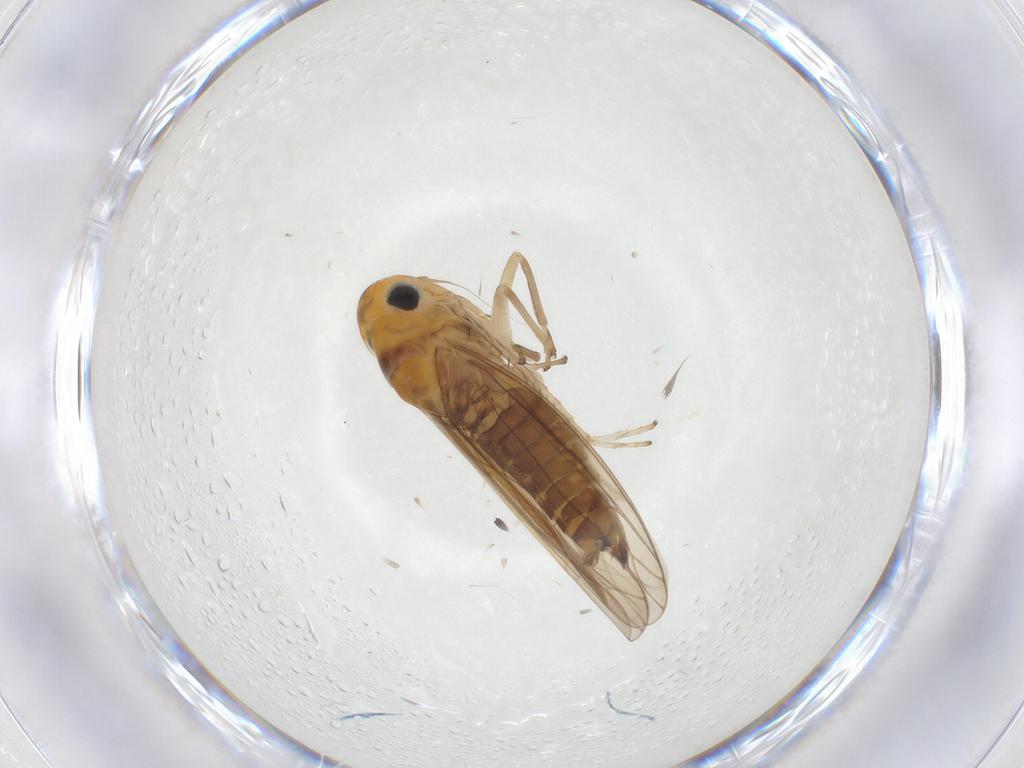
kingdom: Animalia
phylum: Arthropoda
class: Insecta
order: Hemiptera
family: Cicadellidae
